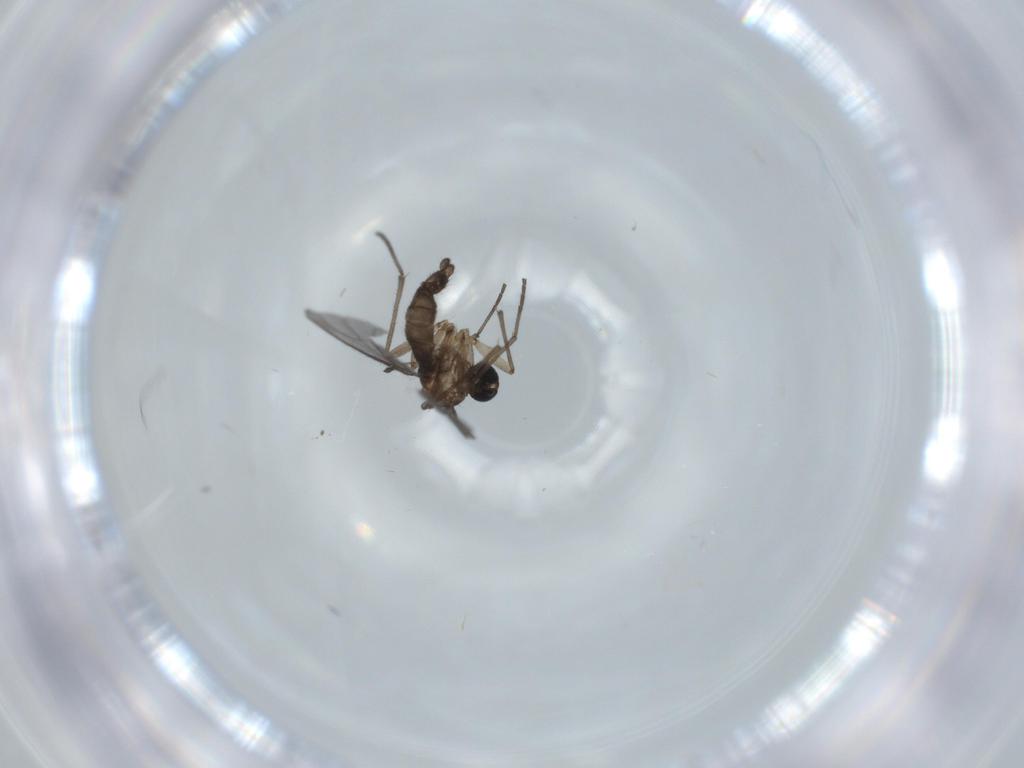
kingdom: Animalia
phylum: Arthropoda
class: Insecta
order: Diptera
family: Sciaridae
